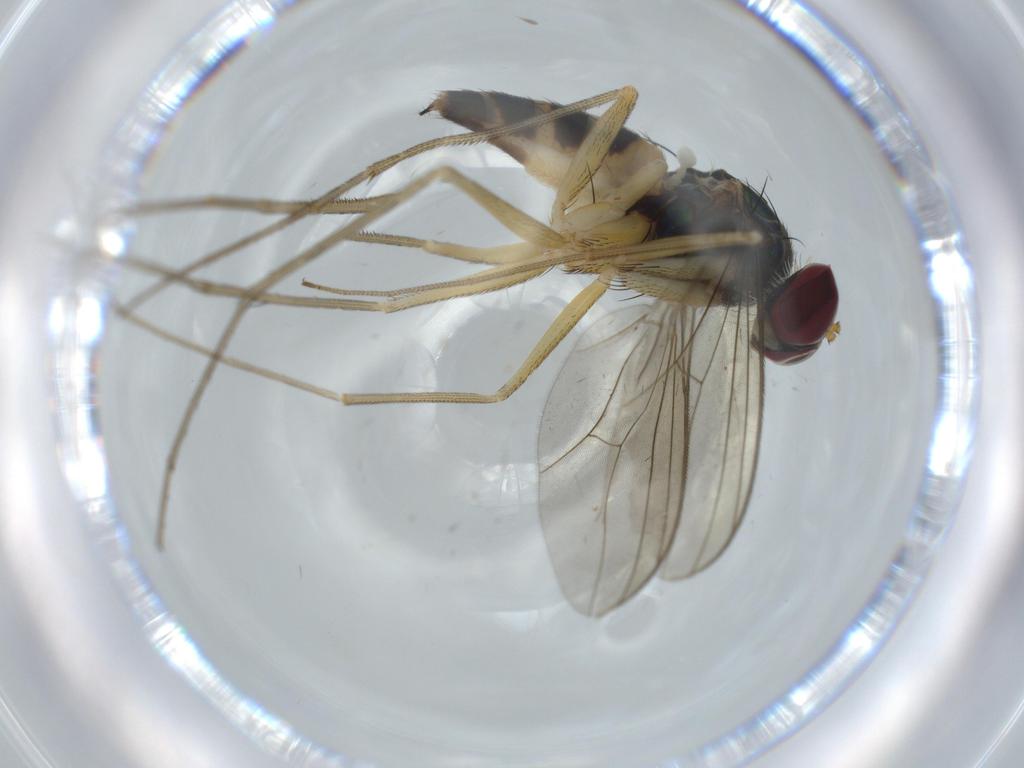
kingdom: Animalia
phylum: Arthropoda
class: Insecta
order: Diptera
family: Dolichopodidae
